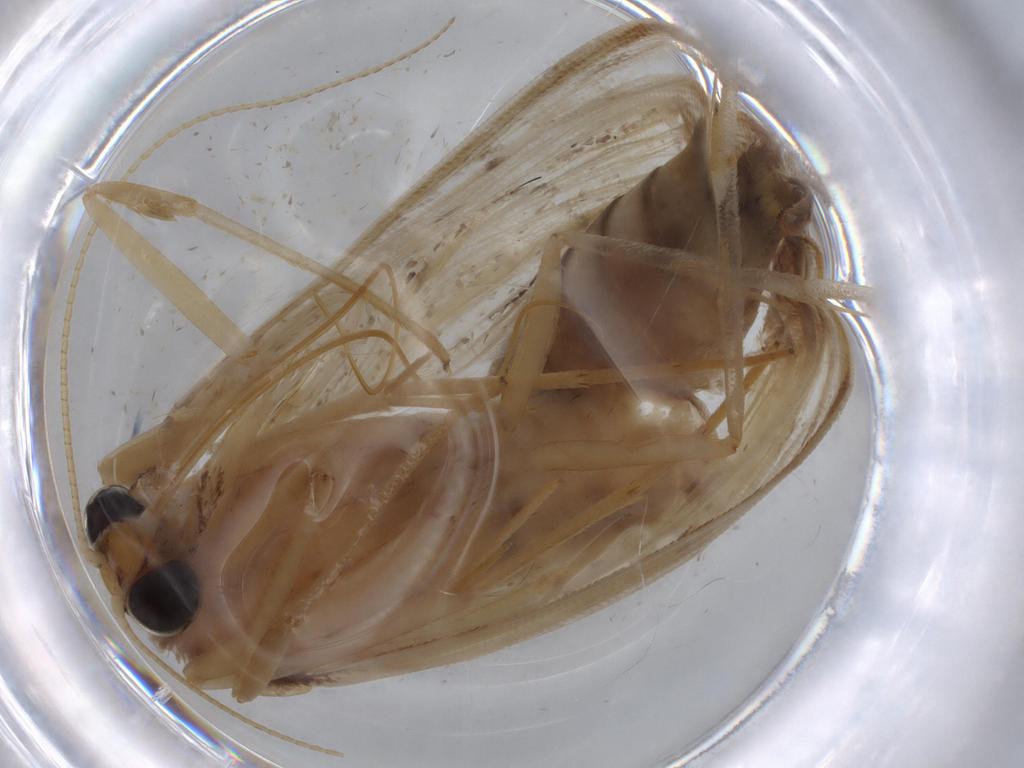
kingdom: Animalia
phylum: Arthropoda
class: Insecta
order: Lepidoptera
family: Crambidae
